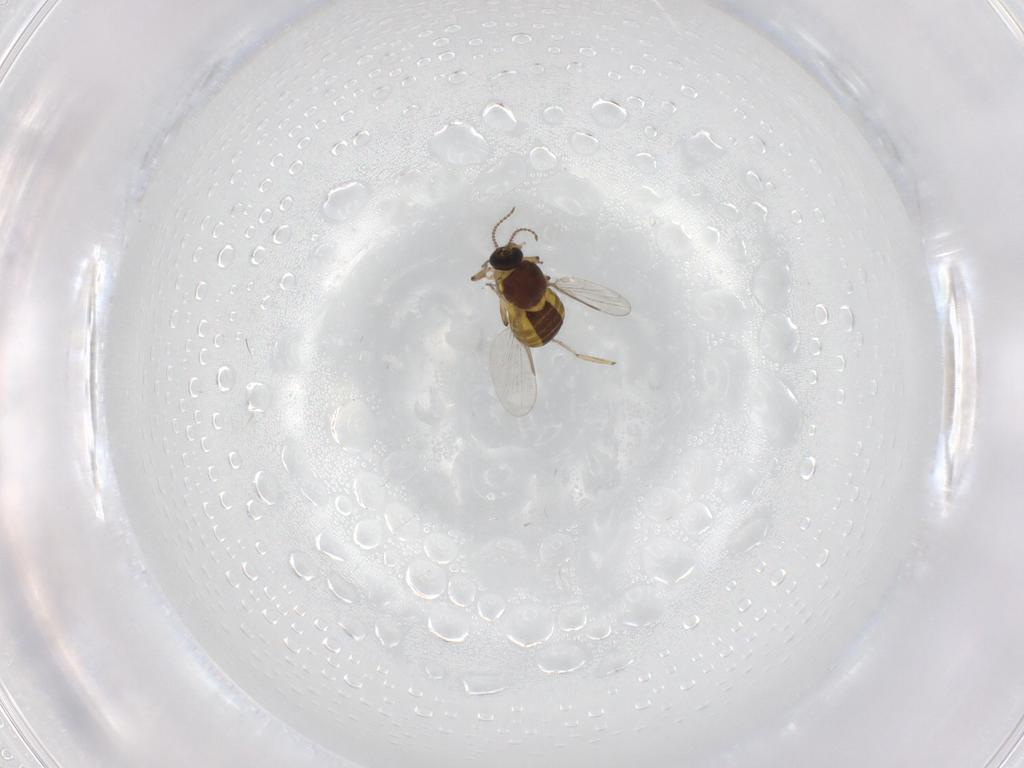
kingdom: Animalia
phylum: Arthropoda
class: Insecta
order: Diptera
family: Ceratopogonidae
